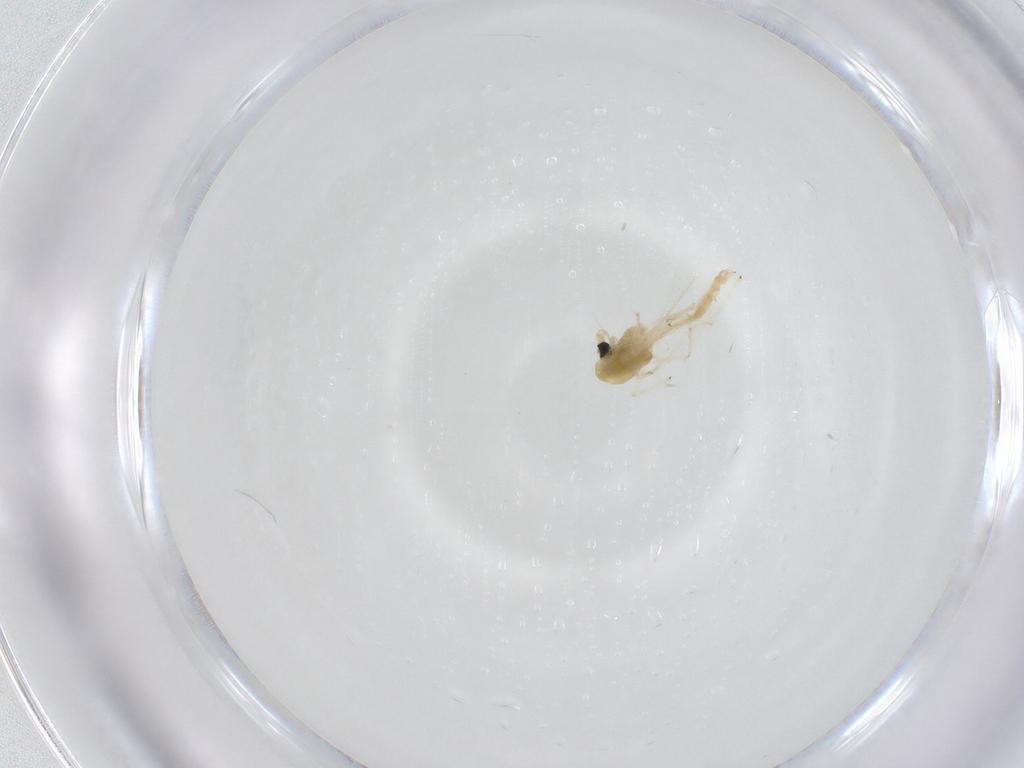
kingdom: Animalia
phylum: Arthropoda
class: Insecta
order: Diptera
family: Chironomidae
